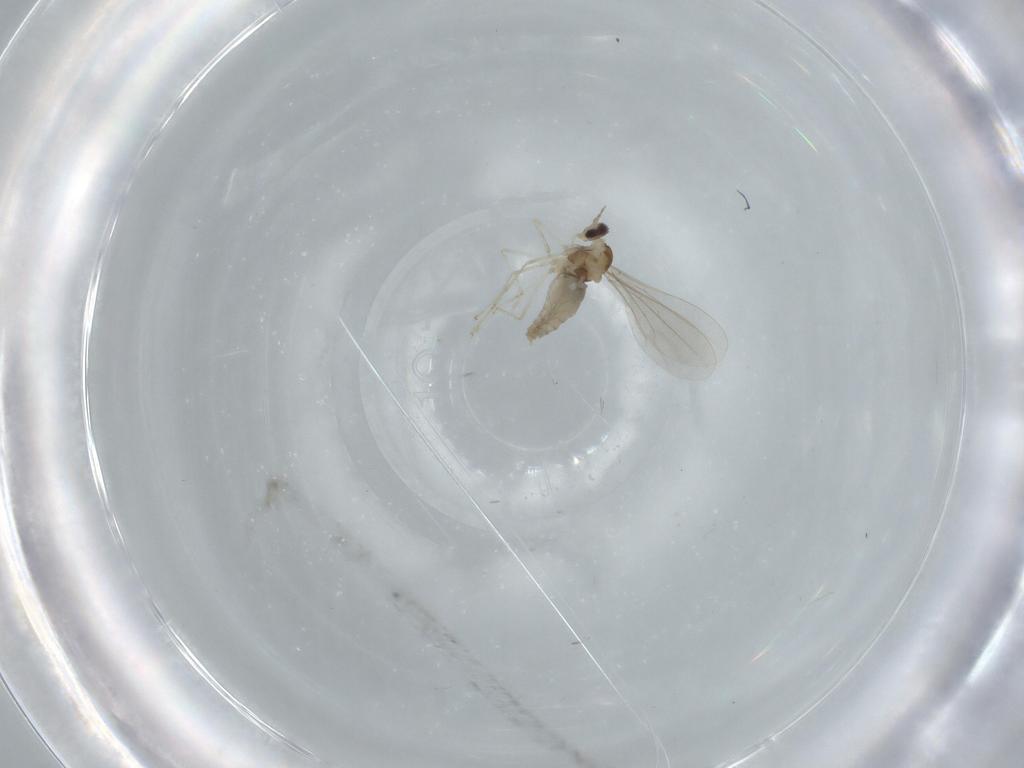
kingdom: Animalia
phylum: Arthropoda
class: Insecta
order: Diptera
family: Cecidomyiidae
